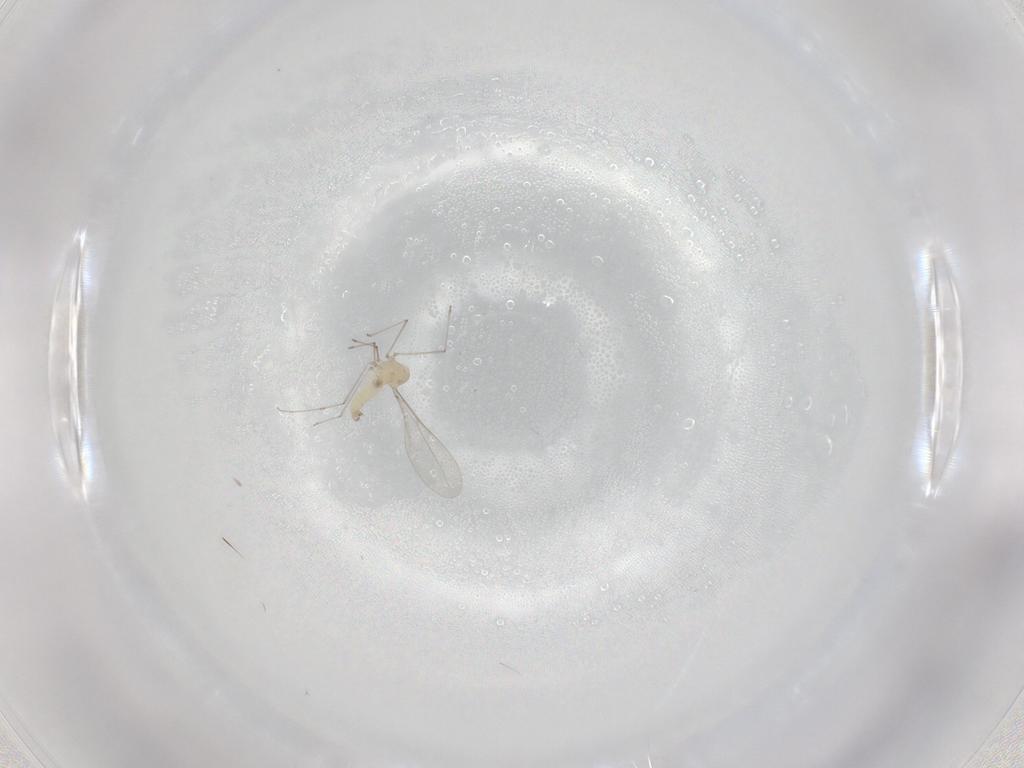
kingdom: Animalia
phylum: Arthropoda
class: Insecta
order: Diptera
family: Cecidomyiidae
